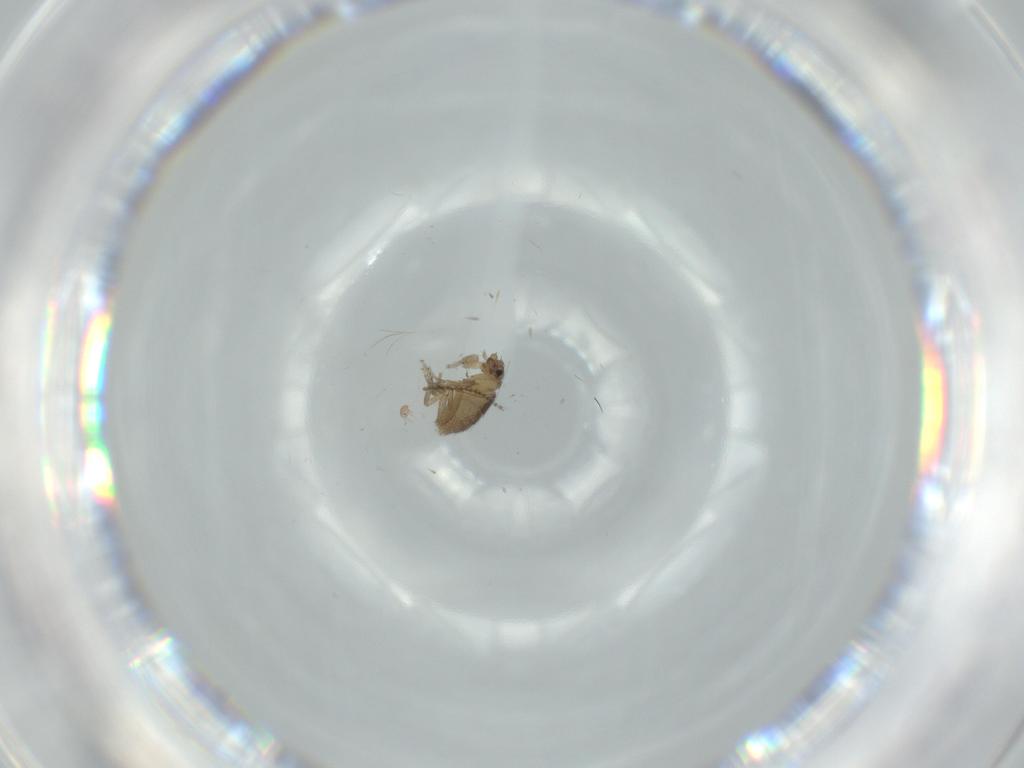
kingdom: Animalia
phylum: Arthropoda
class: Insecta
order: Diptera
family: Phoridae
